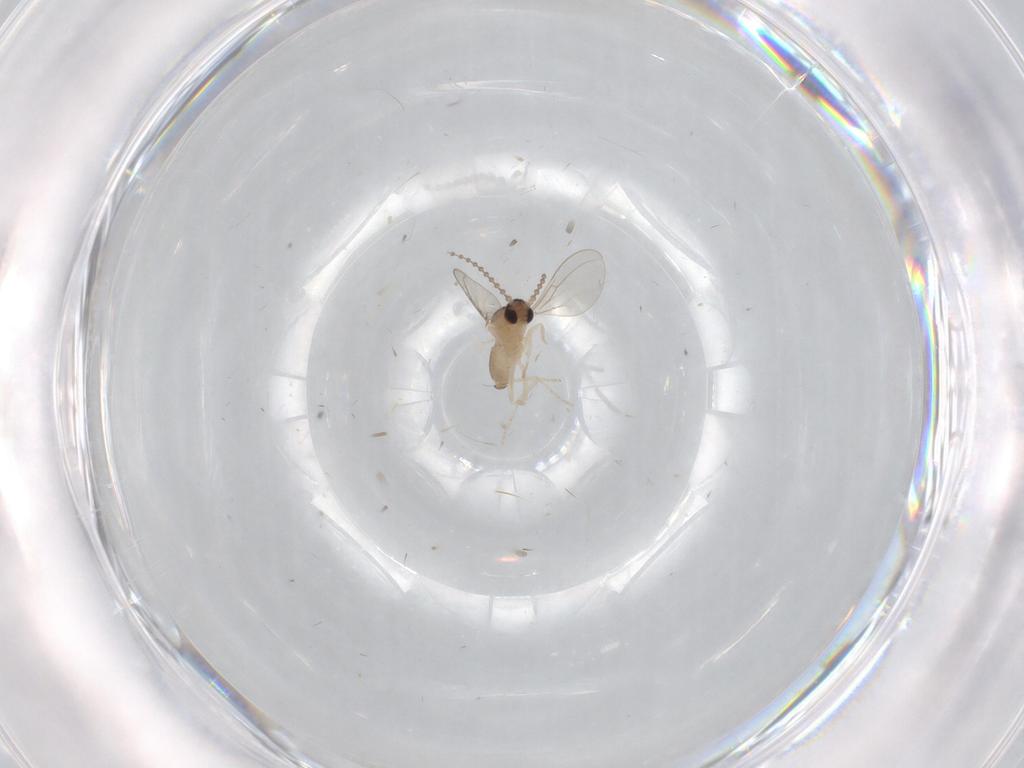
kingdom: Animalia
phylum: Arthropoda
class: Insecta
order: Diptera
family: Cecidomyiidae
